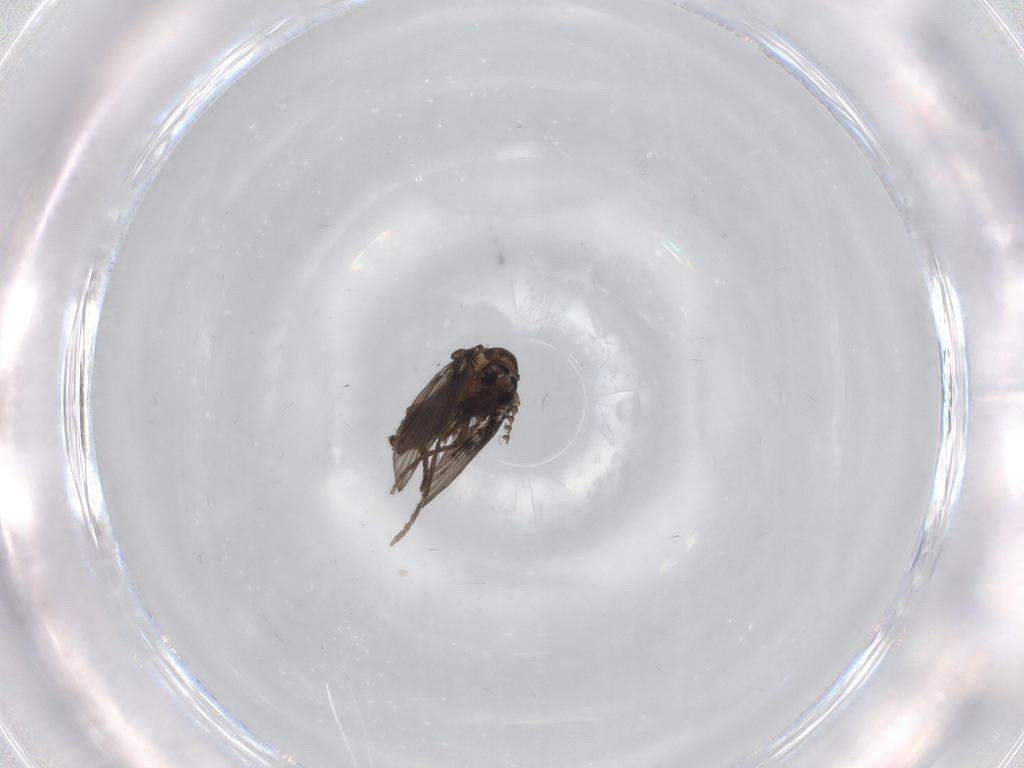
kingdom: Animalia
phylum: Arthropoda
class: Insecta
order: Diptera
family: Psychodidae
